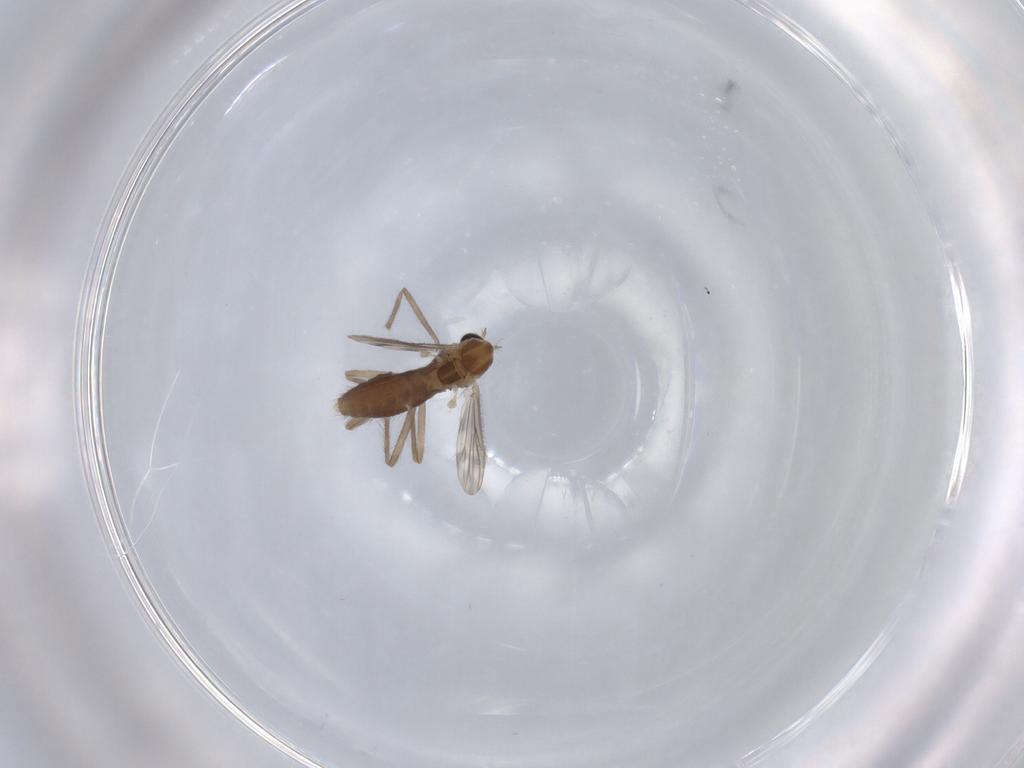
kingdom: Animalia
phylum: Arthropoda
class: Insecta
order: Diptera
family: Chironomidae
